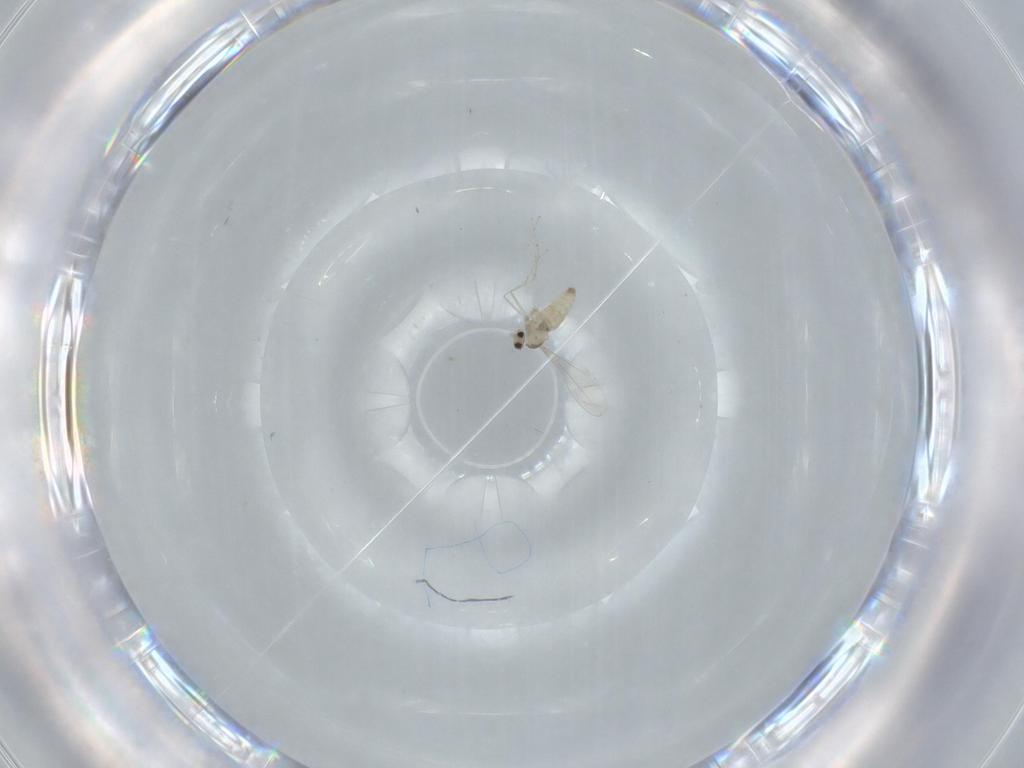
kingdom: Animalia
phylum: Arthropoda
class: Insecta
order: Diptera
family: Cecidomyiidae
